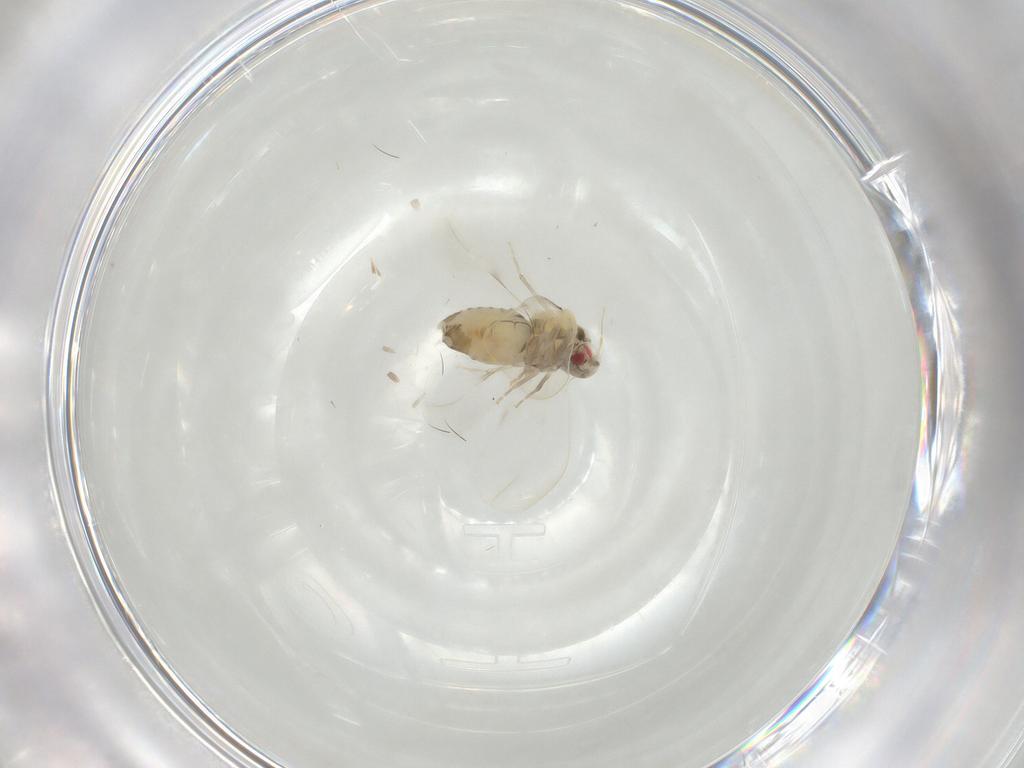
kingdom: Animalia
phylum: Arthropoda
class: Insecta
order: Hemiptera
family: Aleyrodidae
